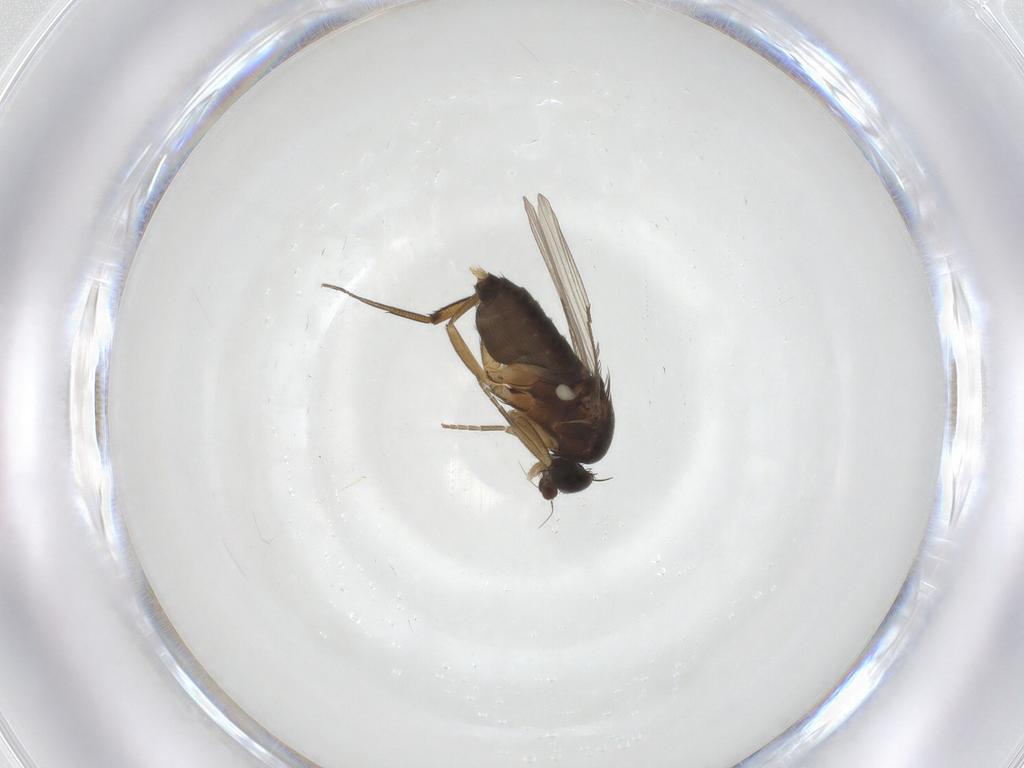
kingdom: Animalia
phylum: Arthropoda
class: Insecta
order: Diptera
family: Phoridae
